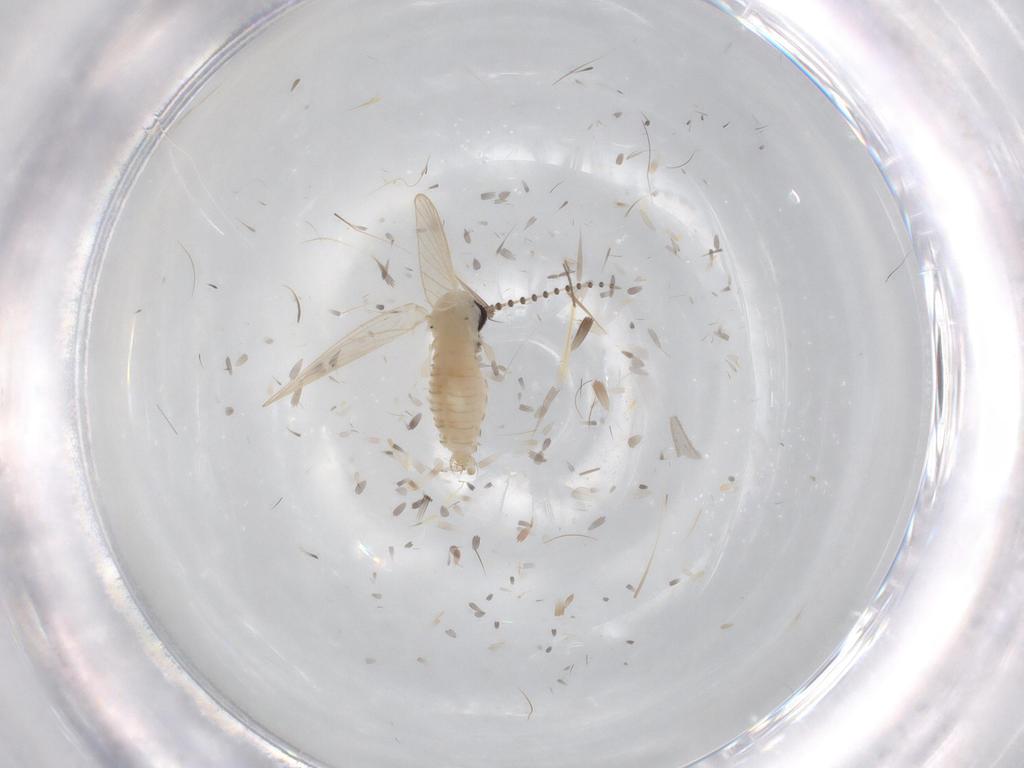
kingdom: Animalia
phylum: Arthropoda
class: Insecta
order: Diptera
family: Psychodidae
